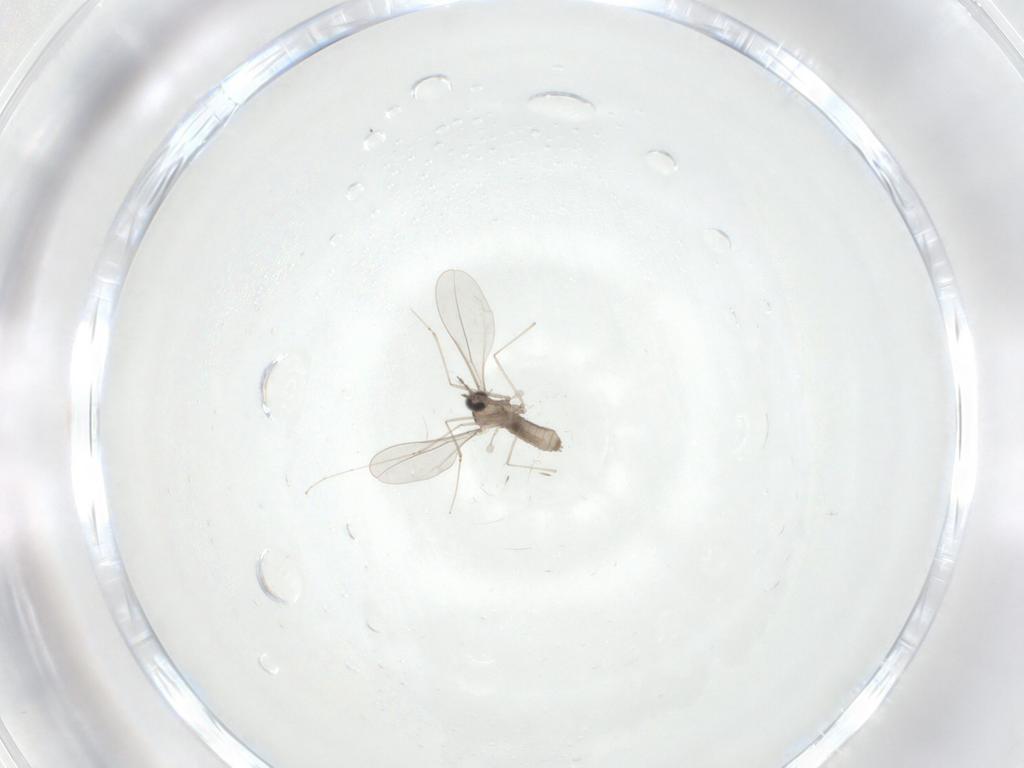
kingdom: Animalia
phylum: Arthropoda
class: Insecta
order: Diptera
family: Cecidomyiidae
